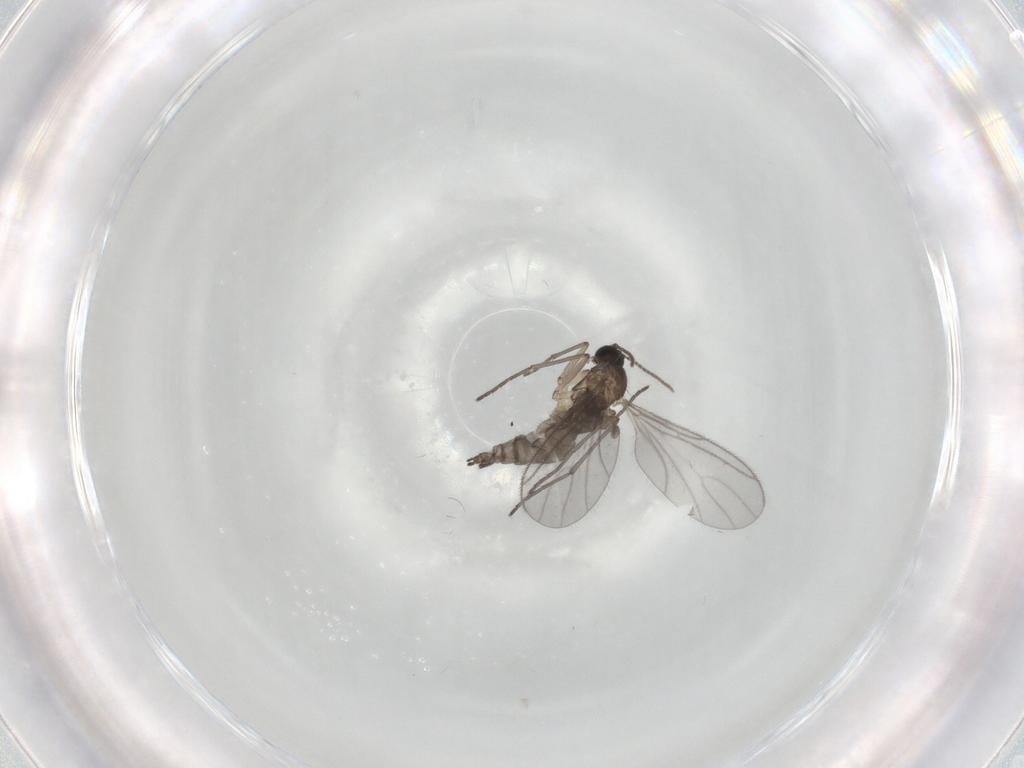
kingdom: Animalia
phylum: Arthropoda
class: Insecta
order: Diptera
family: Sciaridae
